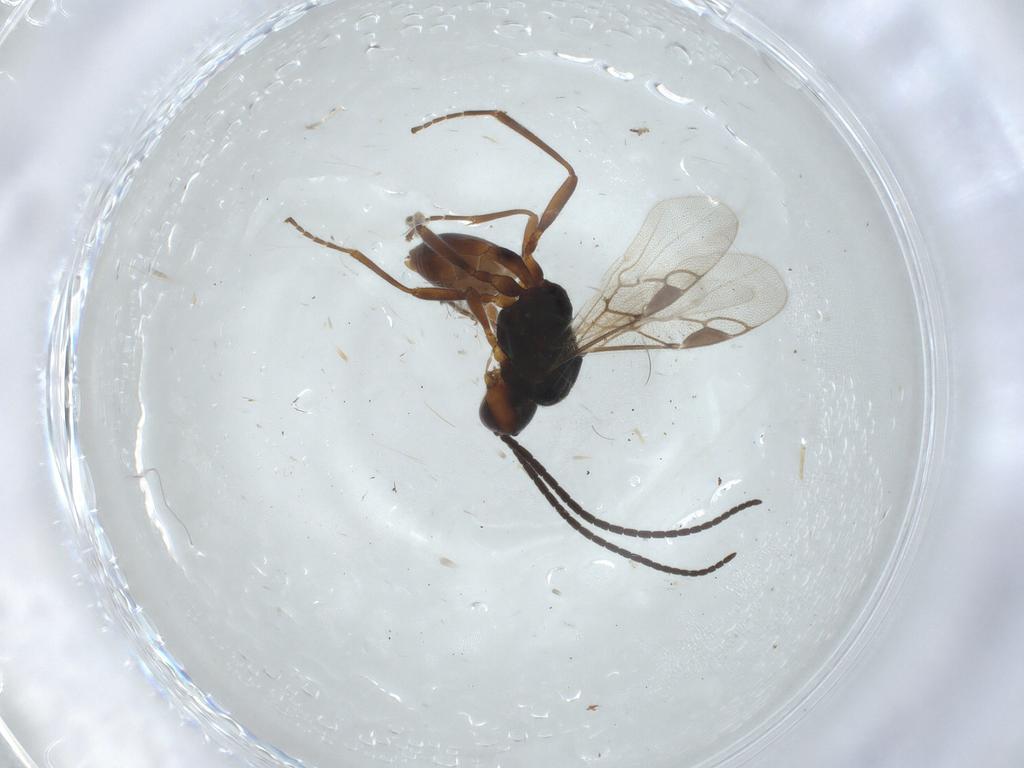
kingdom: Animalia
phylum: Arthropoda
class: Insecta
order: Hymenoptera
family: Braconidae
